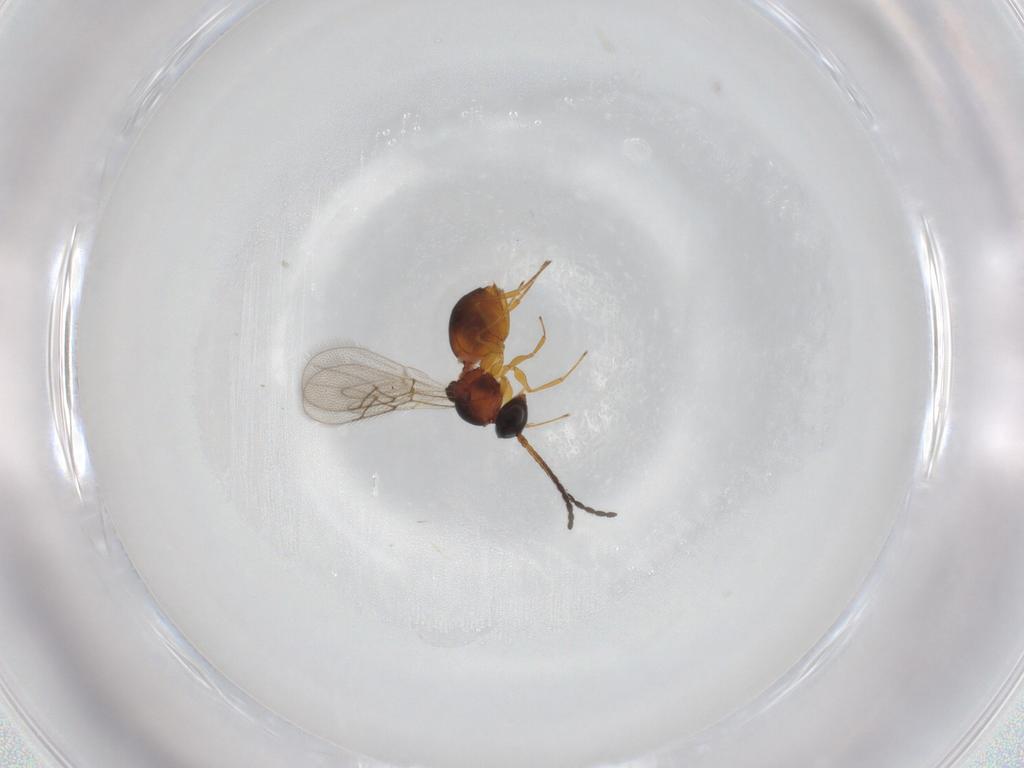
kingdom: Animalia
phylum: Arthropoda
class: Insecta
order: Hymenoptera
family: Figitidae
